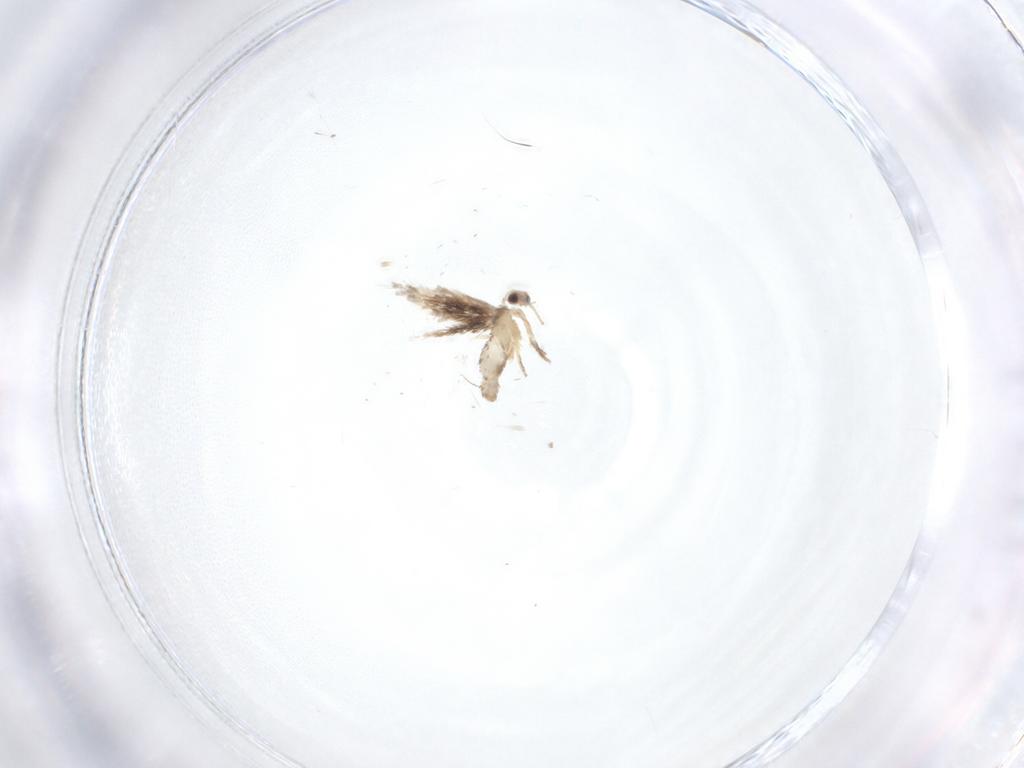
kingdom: Animalia
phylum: Arthropoda
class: Insecta
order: Lepidoptera
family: Nepticulidae
